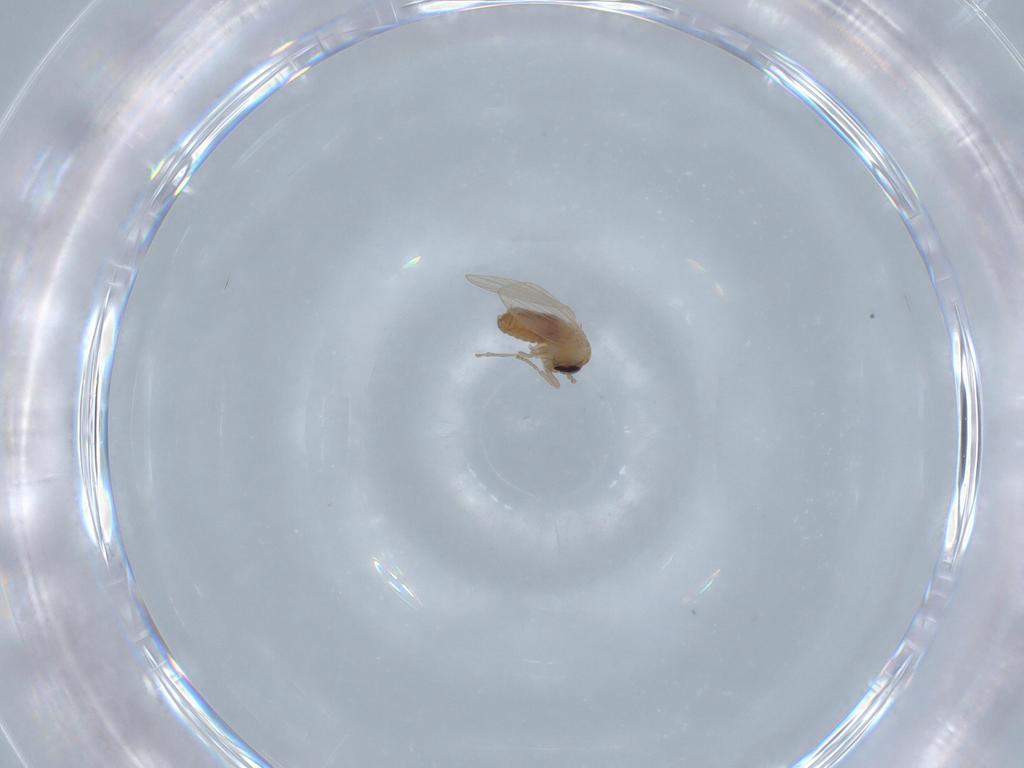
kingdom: Animalia
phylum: Arthropoda
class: Insecta
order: Diptera
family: Psychodidae
